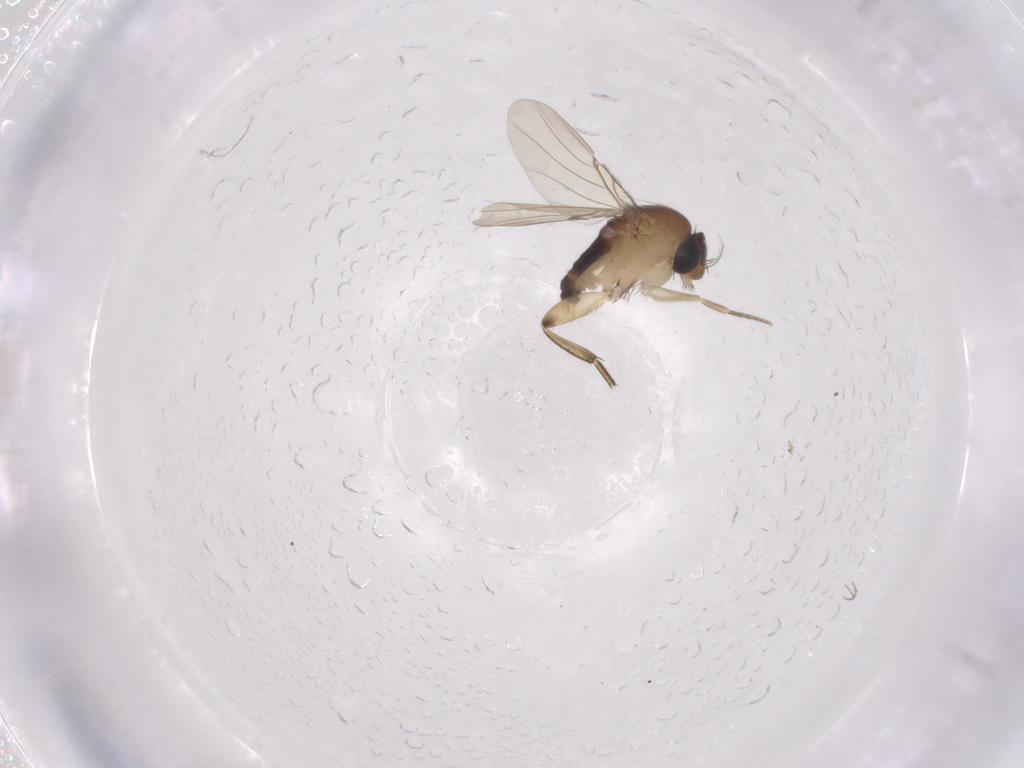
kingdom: Animalia
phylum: Arthropoda
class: Insecta
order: Diptera
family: Phoridae
